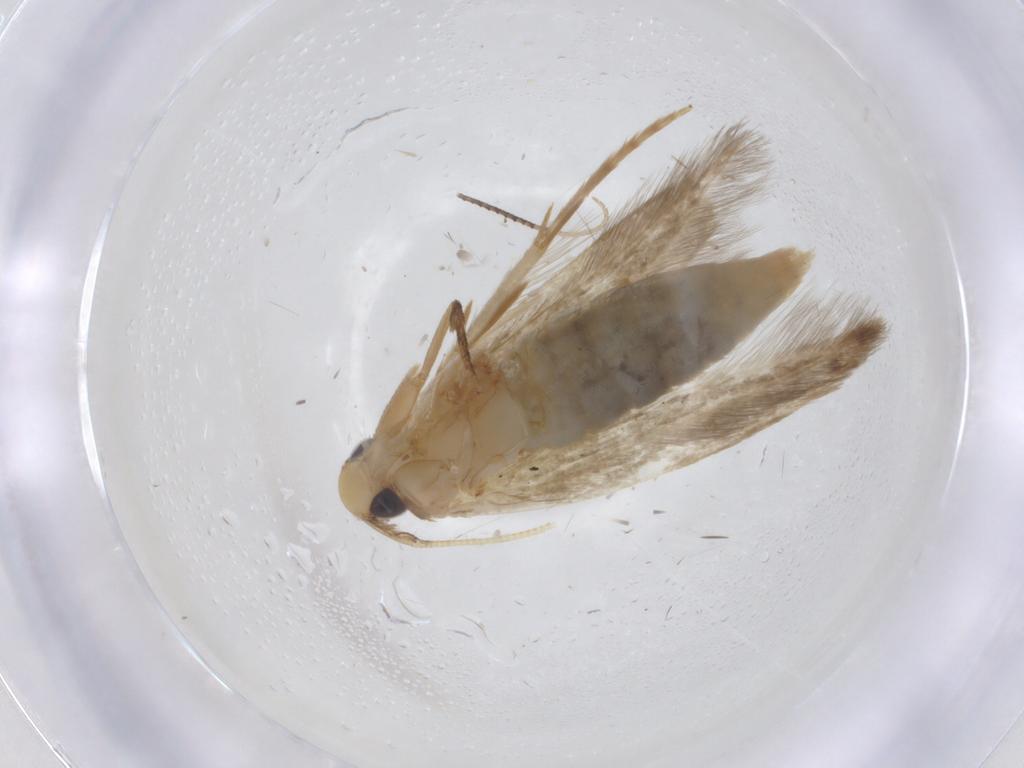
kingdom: Animalia
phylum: Arthropoda
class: Insecta
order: Lepidoptera
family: Tineidae
